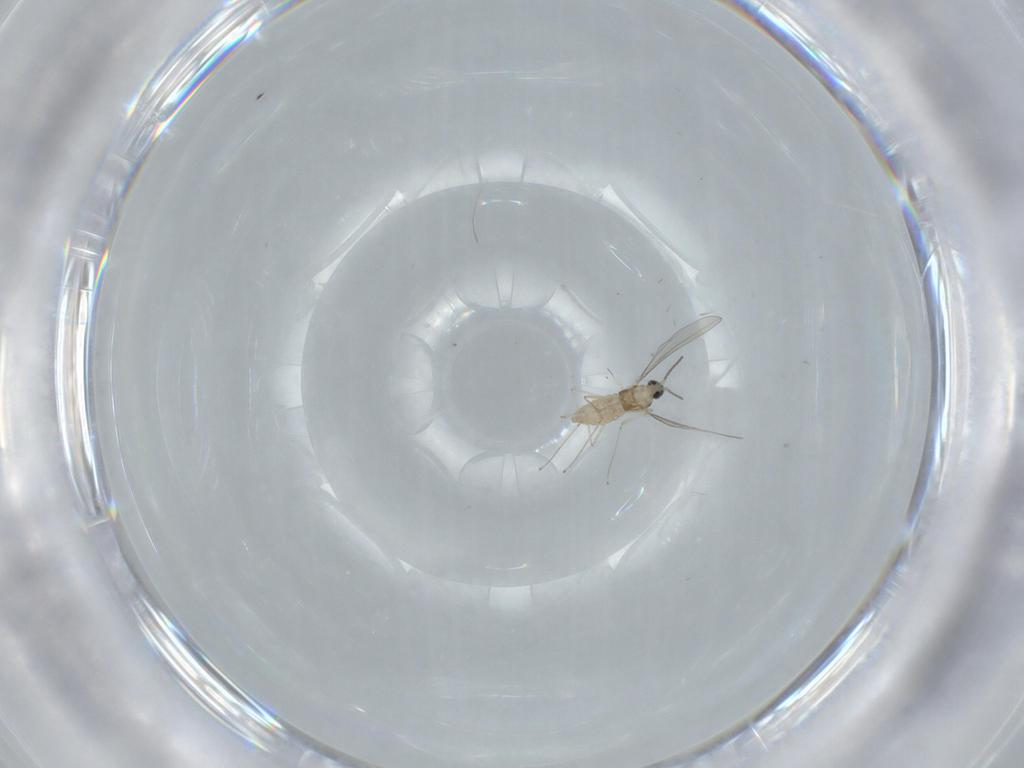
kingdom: Animalia
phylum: Arthropoda
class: Insecta
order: Diptera
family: Cecidomyiidae
